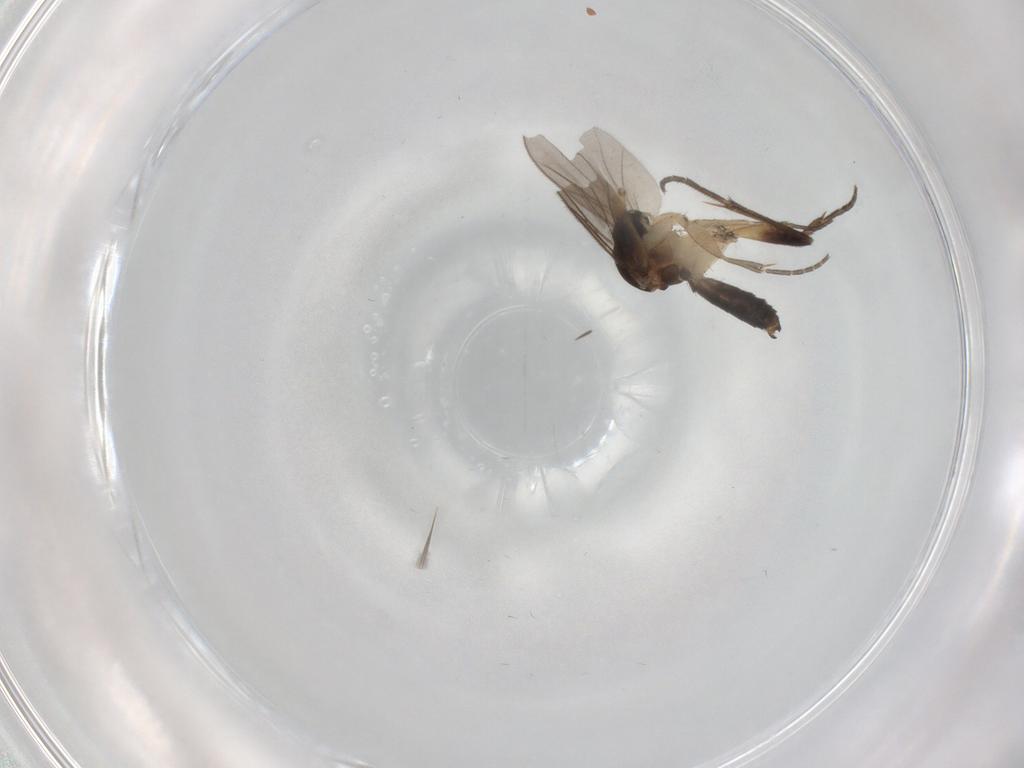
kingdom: Animalia
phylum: Arthropoda
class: Insecta
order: Diptera
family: Ceratopogonidae
